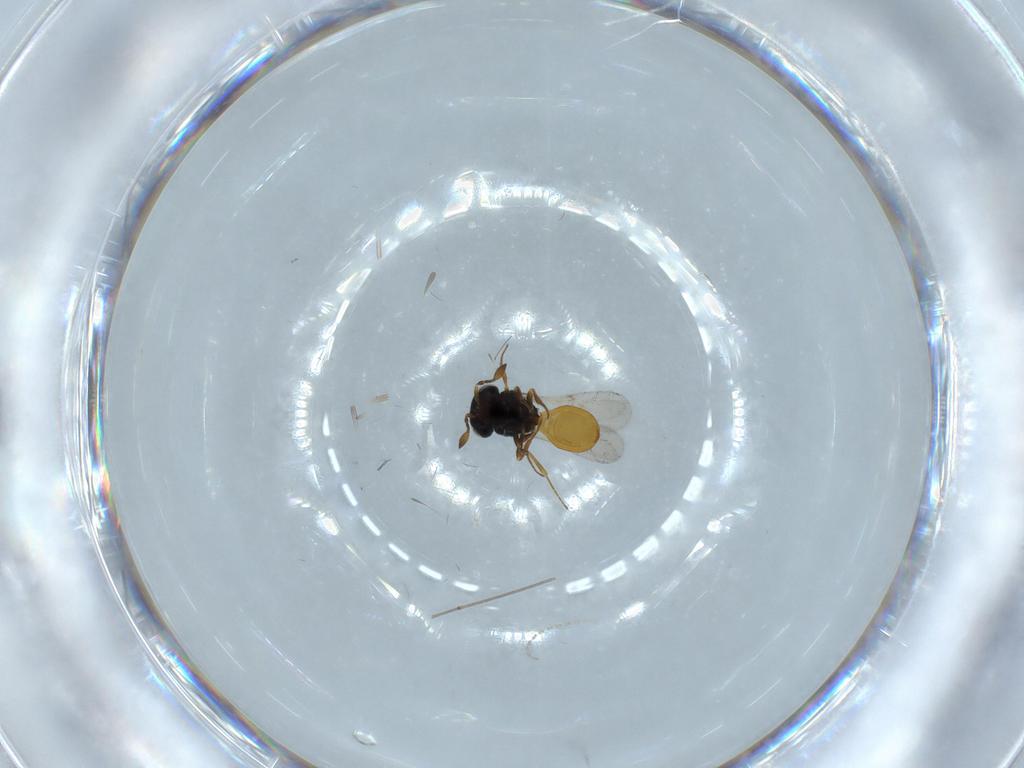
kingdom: Animalia
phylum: Arthropoda
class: Insecta
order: Hymenoptera
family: Scelionidae
